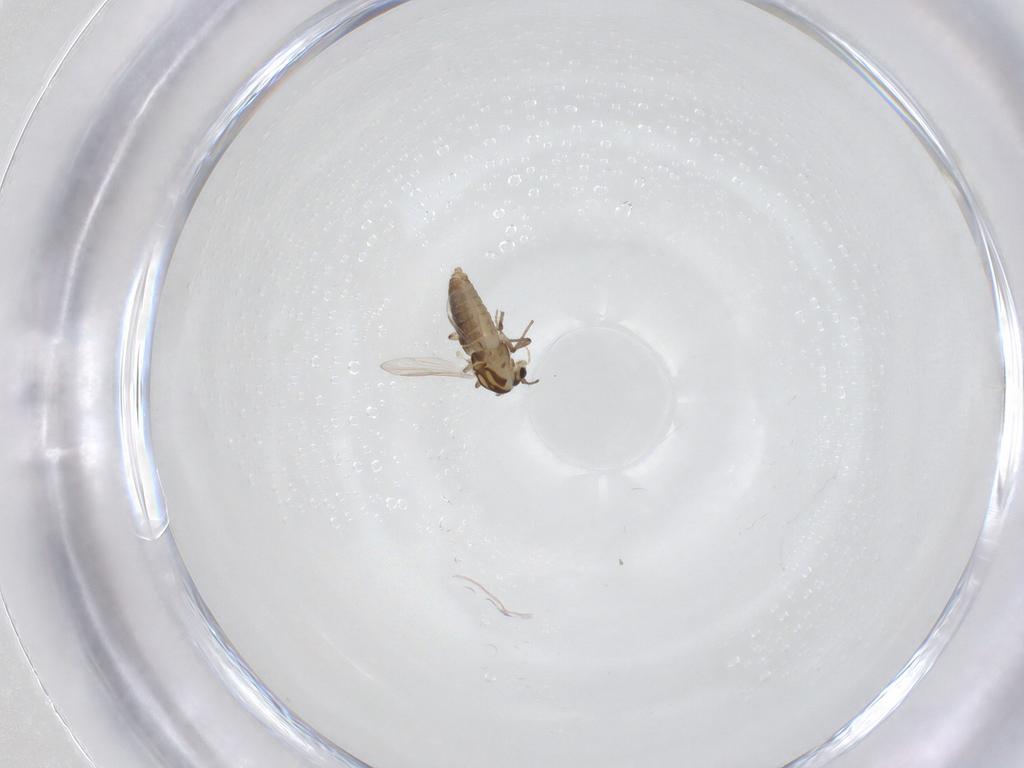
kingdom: Animalia
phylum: Arthropoda
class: Insecta
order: Diptera
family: Chironomidae
